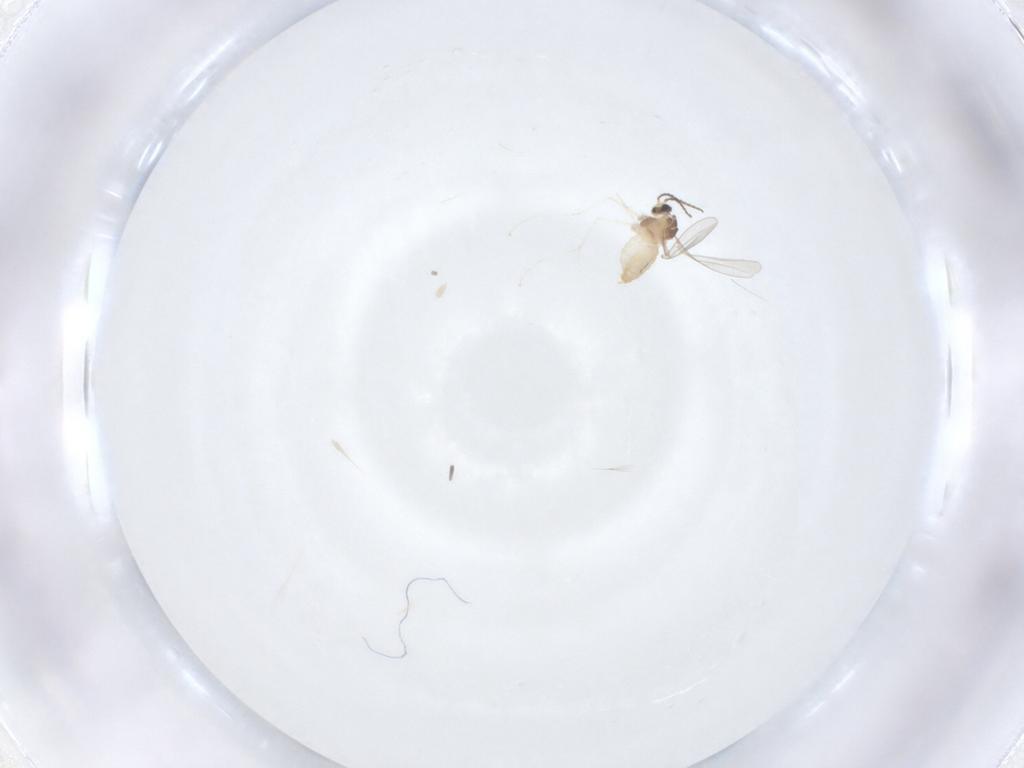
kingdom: Animalia
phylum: Arthropoda
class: Insecta
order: Diptera
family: Cecidomyiidae
